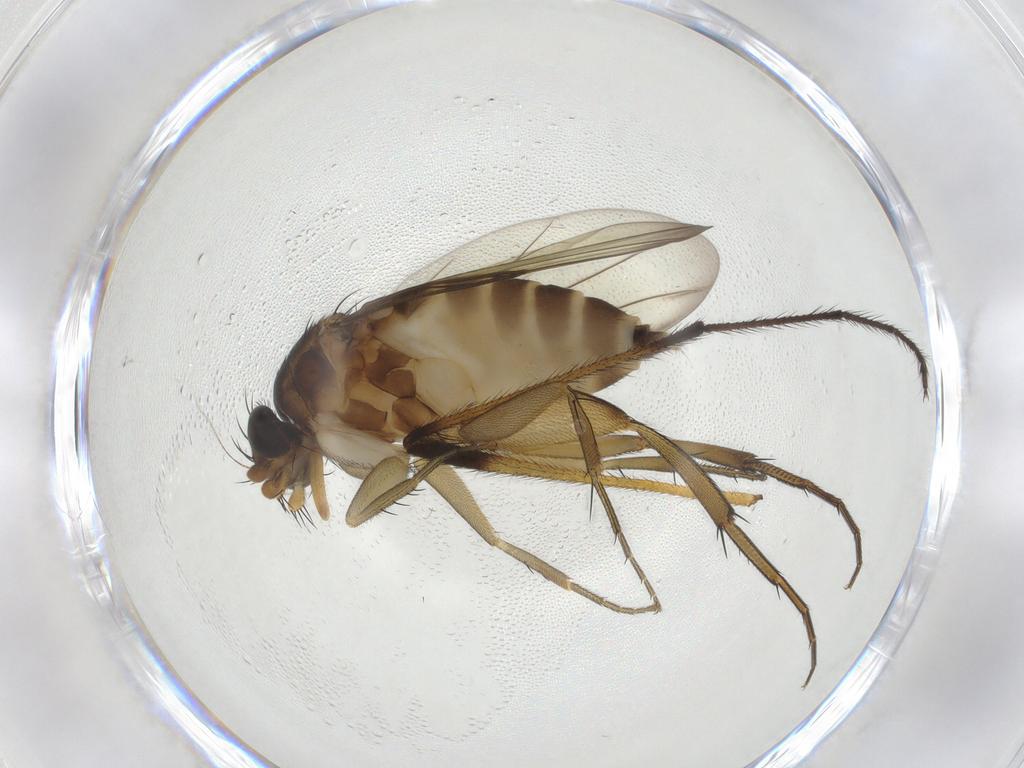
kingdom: Animalia
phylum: Arthropoda
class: Insecta
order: Diptera
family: Phoridae
